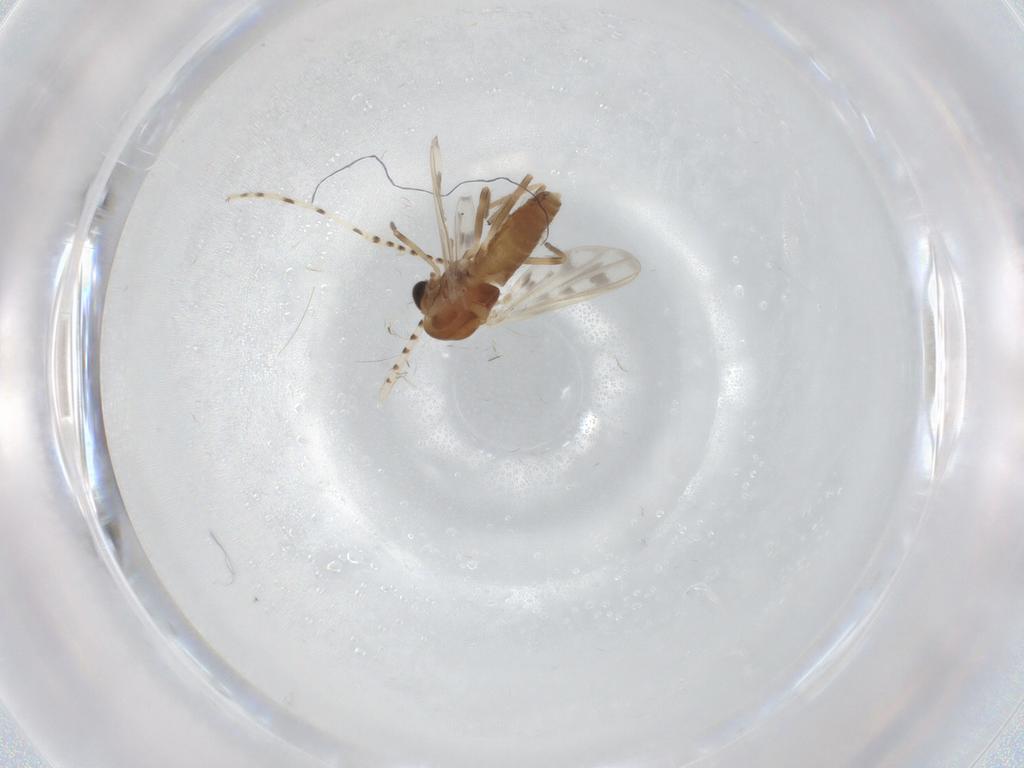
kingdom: Animalia
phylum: Arthropoda
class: Insecta
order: Diptera
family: Chironomidae
